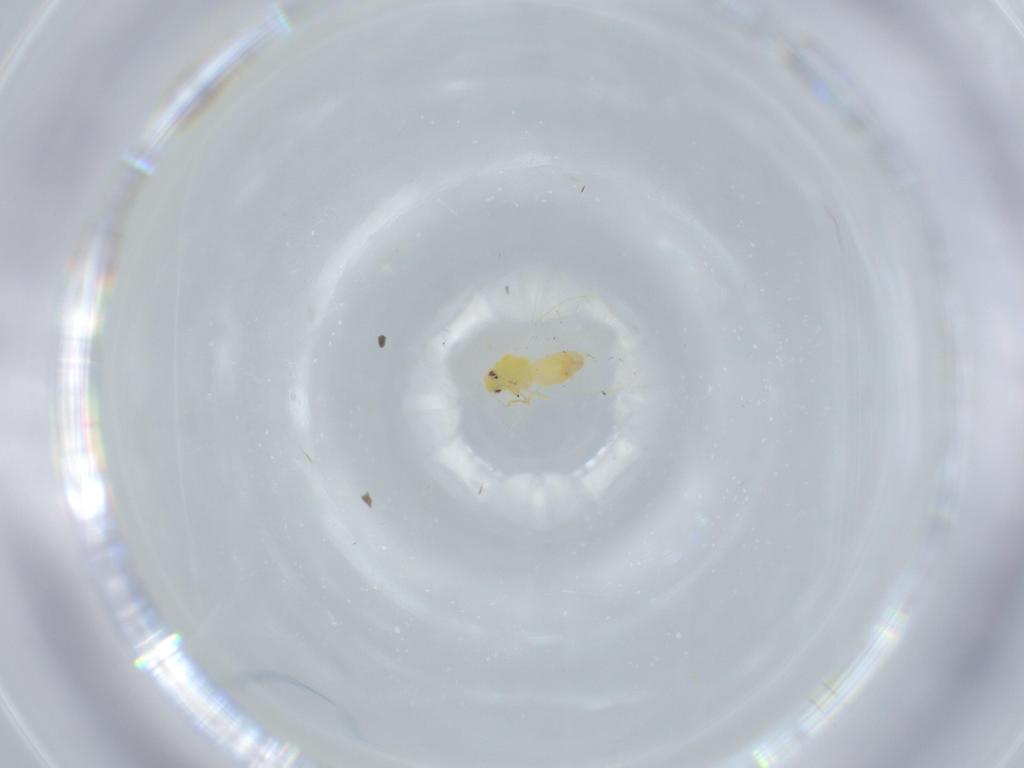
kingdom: Animalia
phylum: Arthropoda
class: Insecta
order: Hemiptera
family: Aleyrodidae
